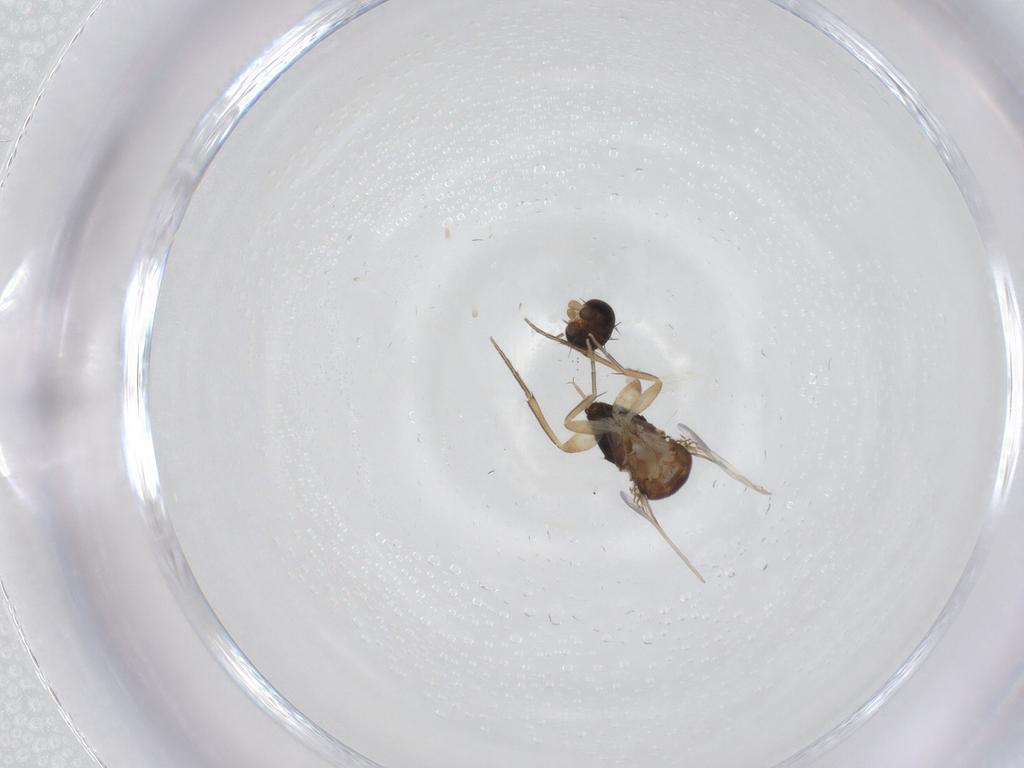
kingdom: Animalia
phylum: Arthropoda
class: Insecta
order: Diptera
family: Phoridae
